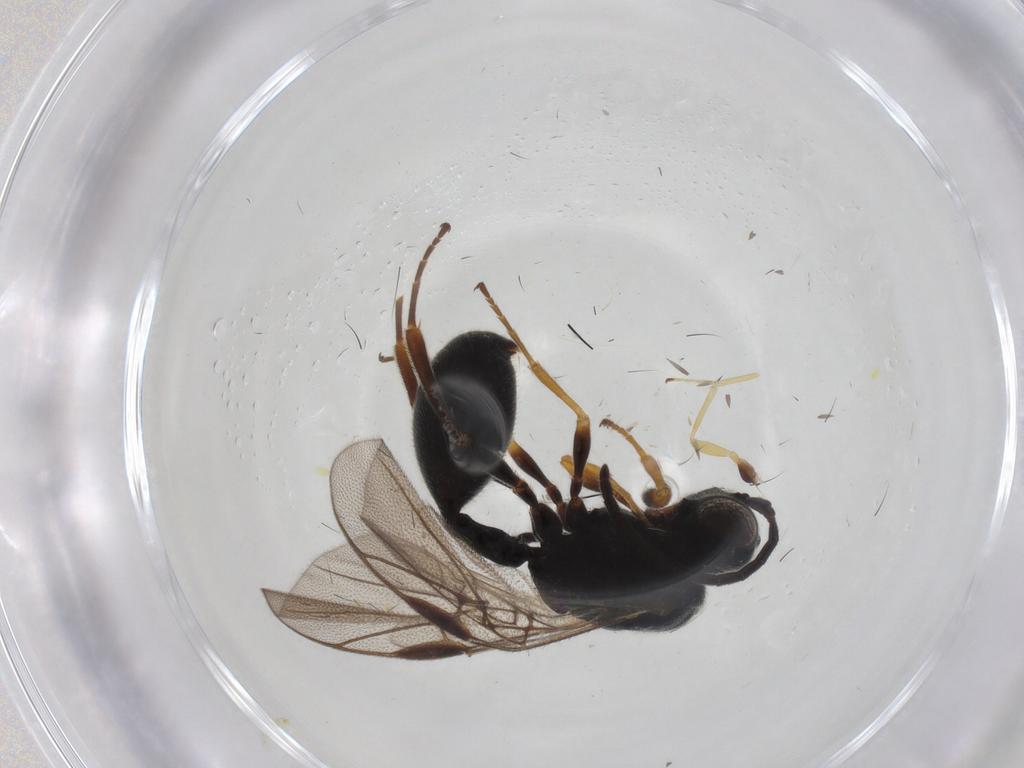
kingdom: Animalia
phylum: Arthropoda
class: Insecta
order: Hymenoptera
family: Pteromalidae
